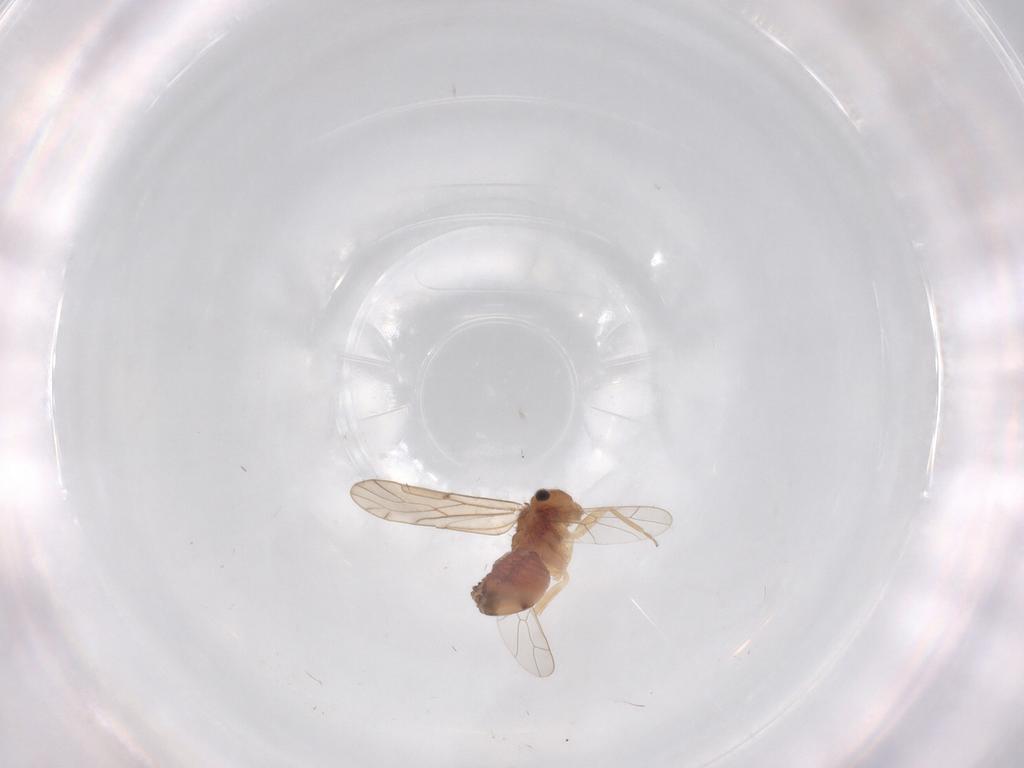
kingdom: Animalia
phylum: Arthropoda
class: Insecta
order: Psocodea
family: Ectopsocidae
